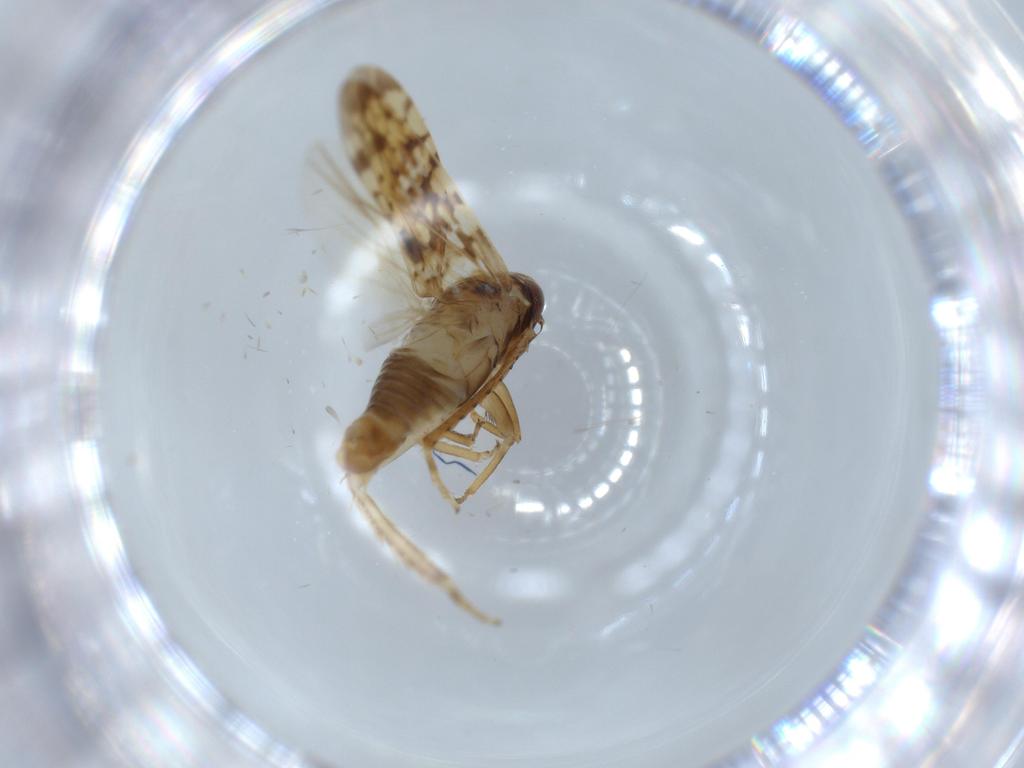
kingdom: Animalia
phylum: Arthropoda
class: Insecta
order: Hemiptera
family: Cicadellidae
